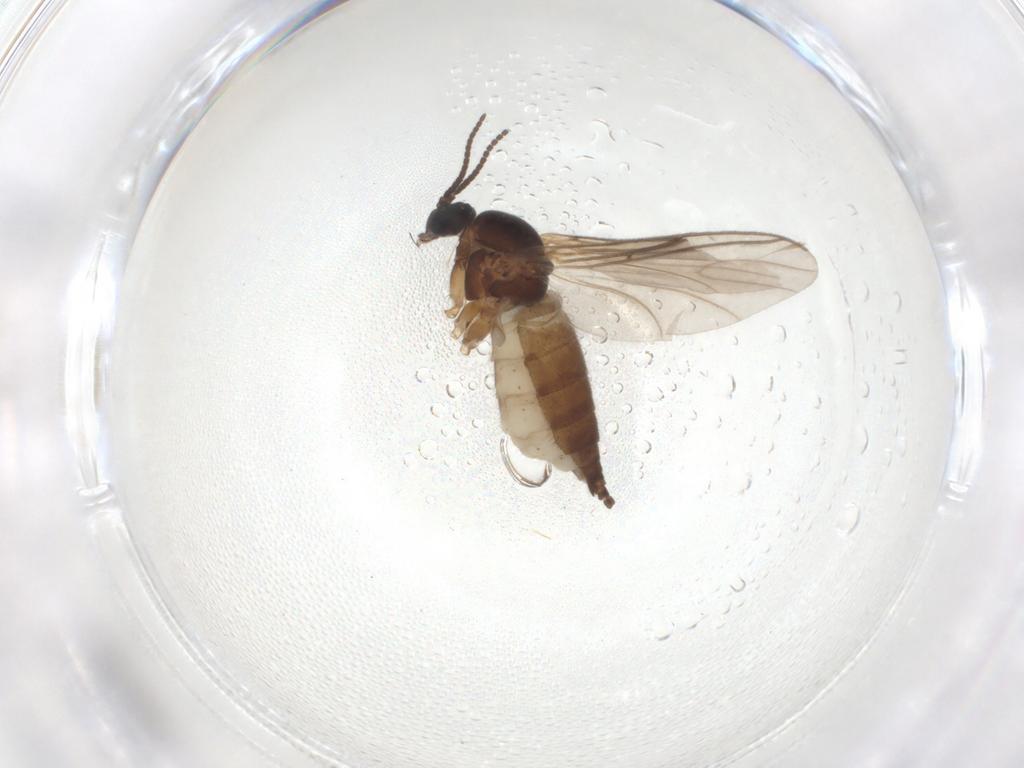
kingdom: Animalia
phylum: Arthropoda
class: Insecta
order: Diptera
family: Sciaridae
